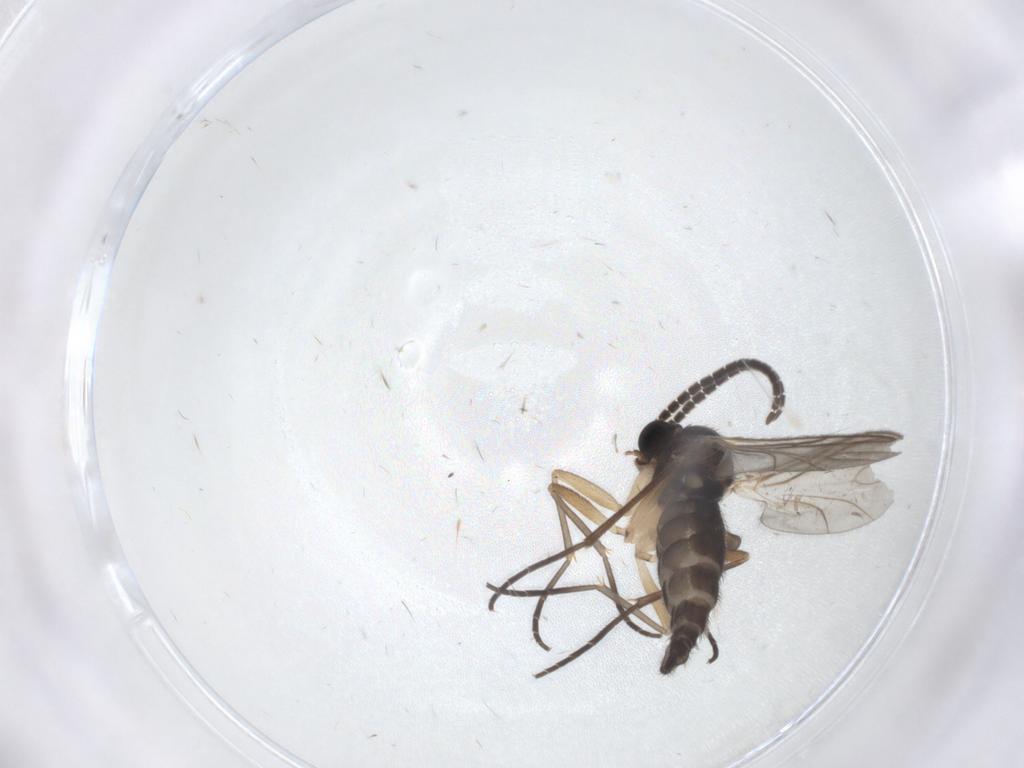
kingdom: Animalia
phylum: Arthropoda
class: Insecta
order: Diptera
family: Sciaridae
